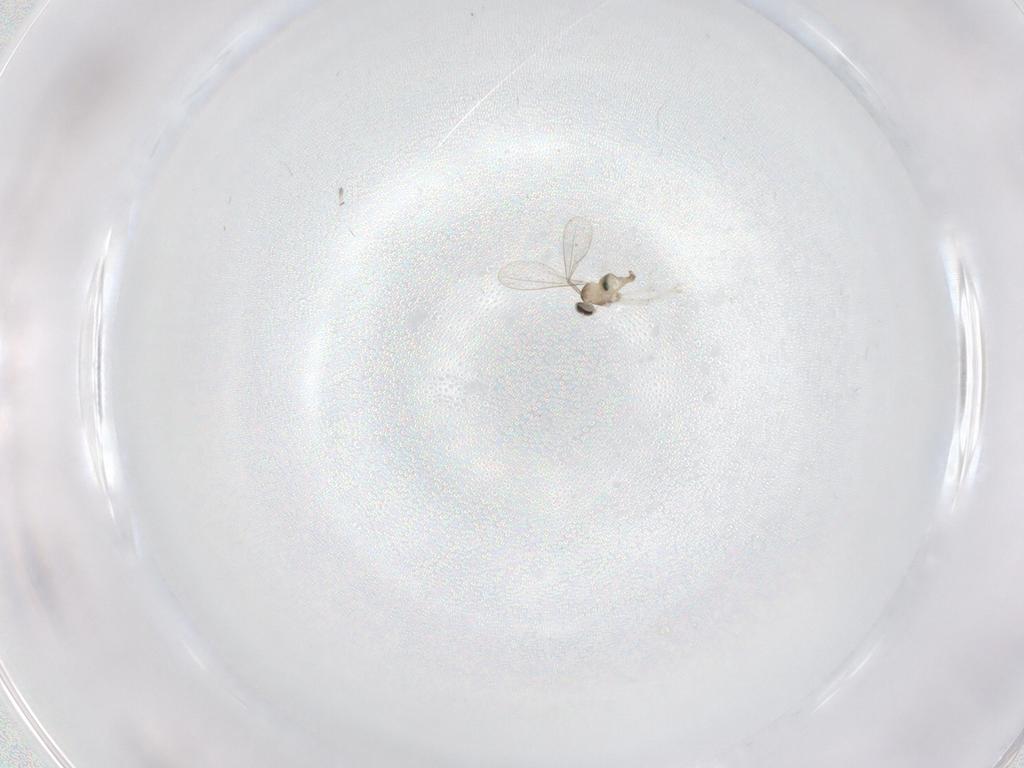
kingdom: Animalia
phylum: Arthropoda
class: Insecta
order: Diptera
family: Cecidomyiidae
